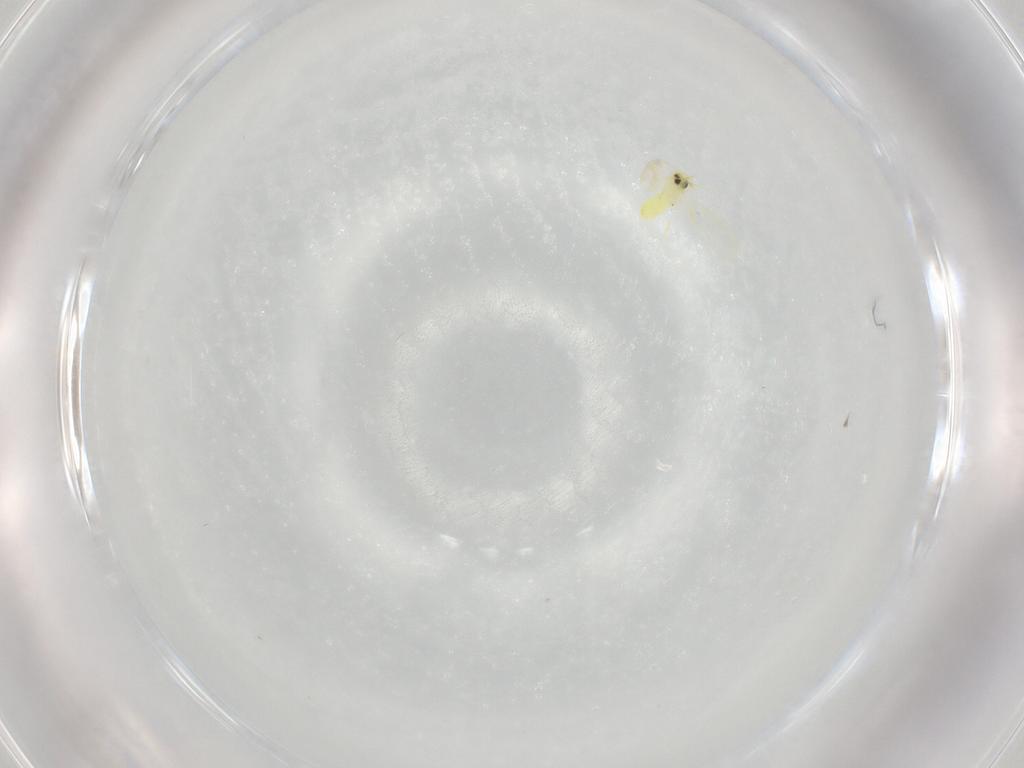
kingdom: Animalia
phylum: Arthropoda
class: Insecta
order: Hemiptera
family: Aleyrodidae
